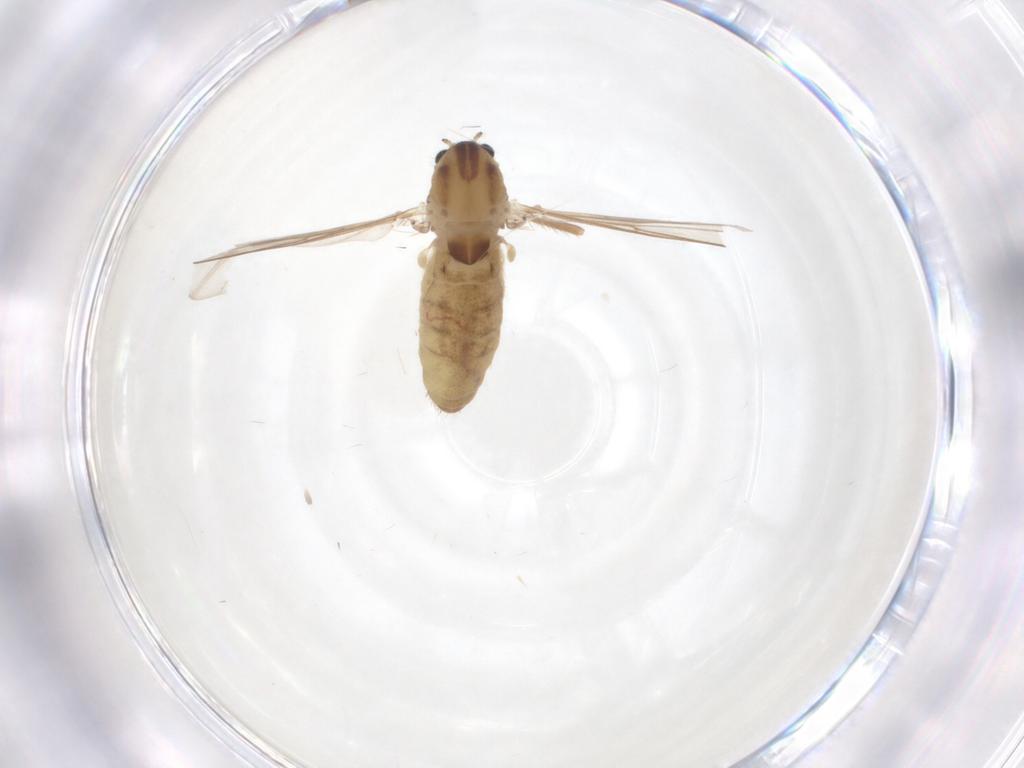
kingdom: Animalia
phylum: Arthropoda
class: Insecta
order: Diptera
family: Chironomidae
